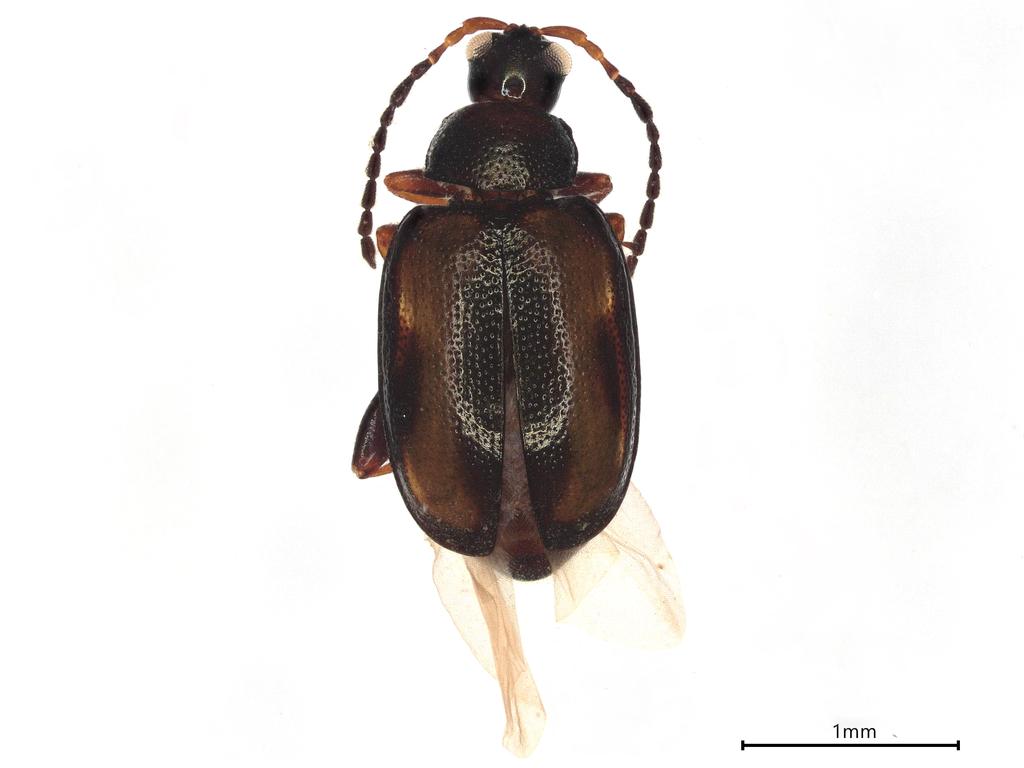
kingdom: Animalia
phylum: Arthropoda
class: Insecta
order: Coleoptera
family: Chrysomelidae
